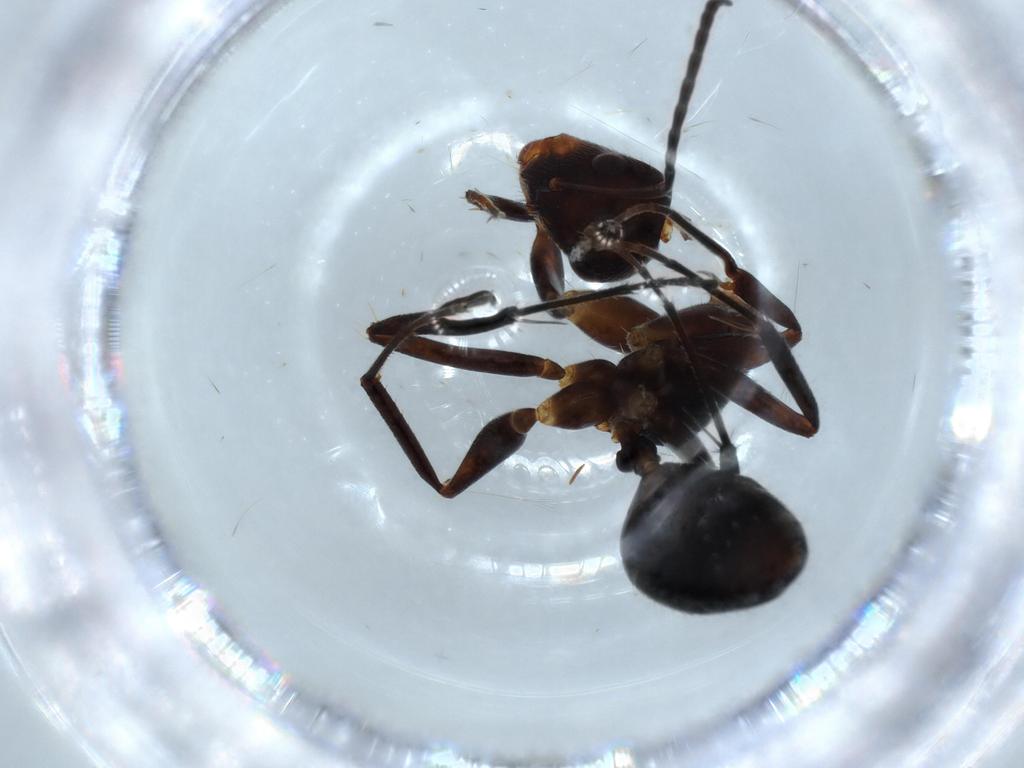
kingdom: Animalia
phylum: Arthropoda
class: Insecta
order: Hymenoptera
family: Formicidae
